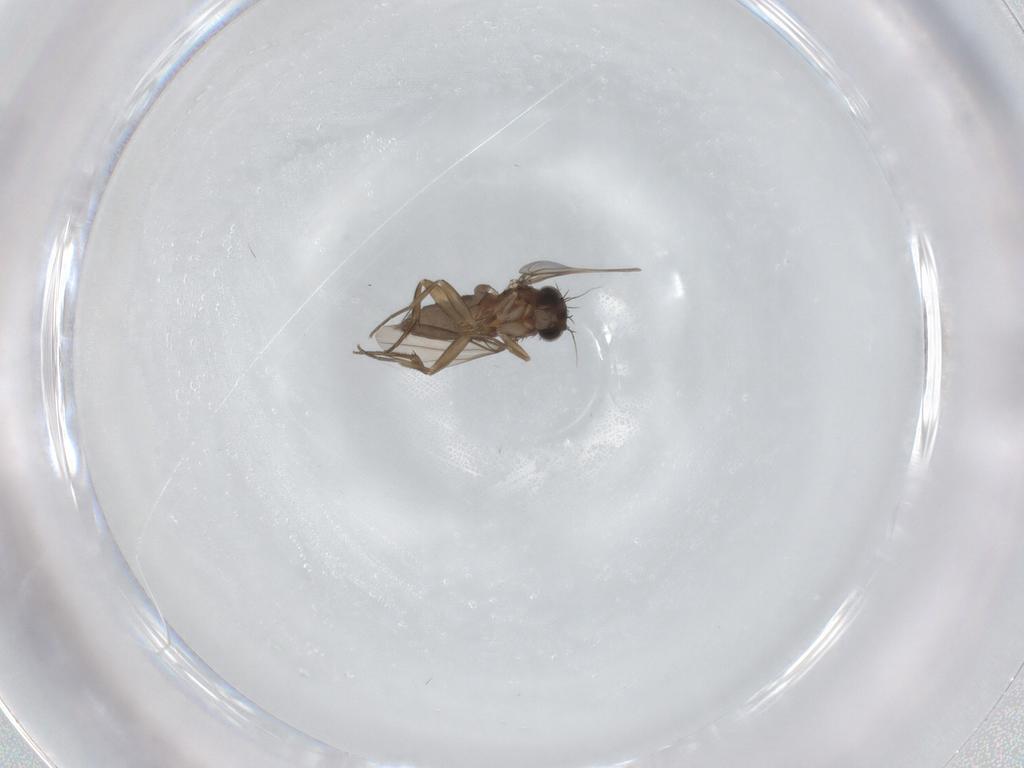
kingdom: Animalia
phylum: Arthropoda
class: Insecta
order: Diptera
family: Phoridae
